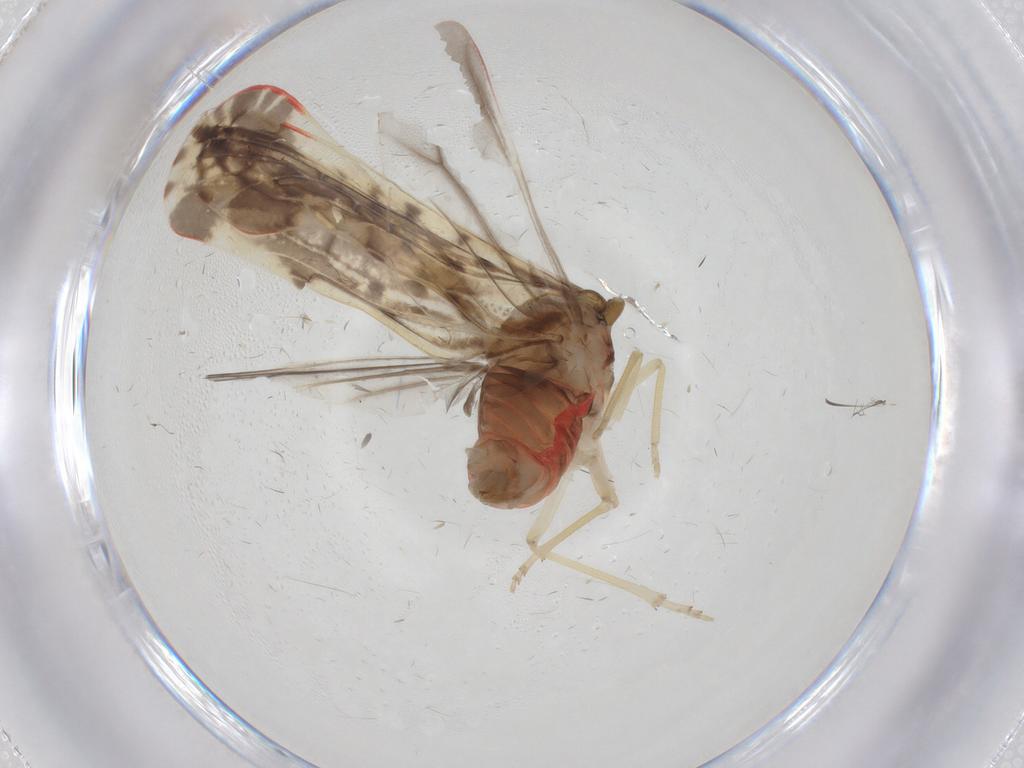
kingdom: Animalia
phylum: Arthropoda
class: Insecta
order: Hemiptera
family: Derbidae
